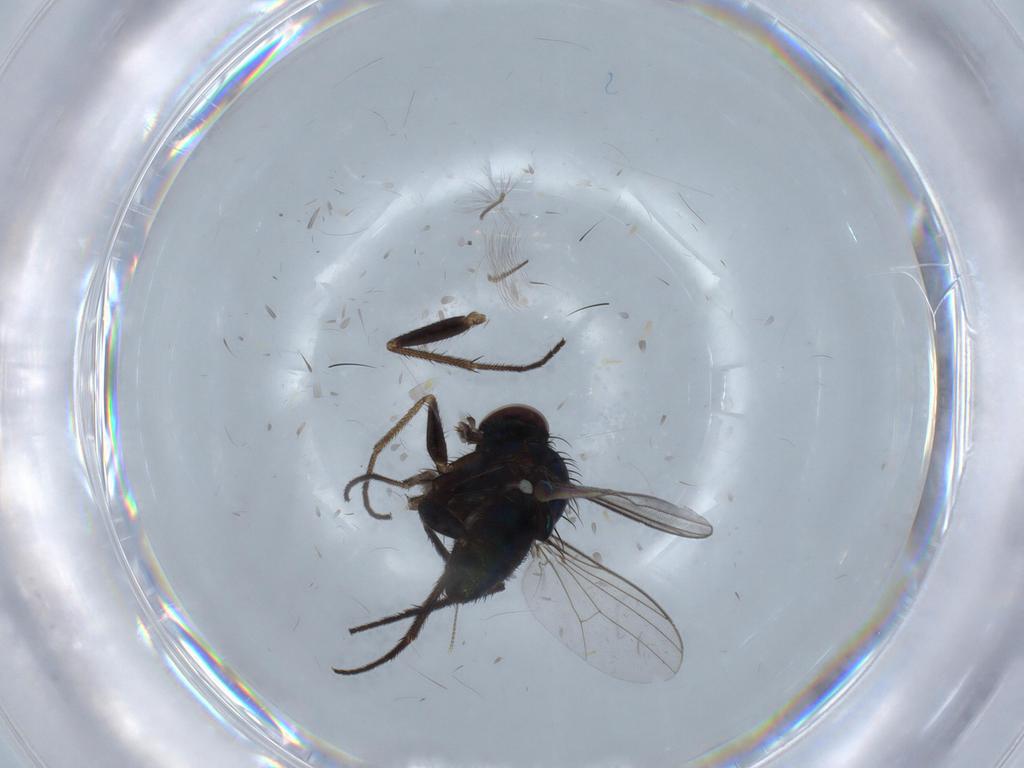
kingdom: Animalia
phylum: Arthropoda
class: Insecta
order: Diptera
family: Dolichopodidae
